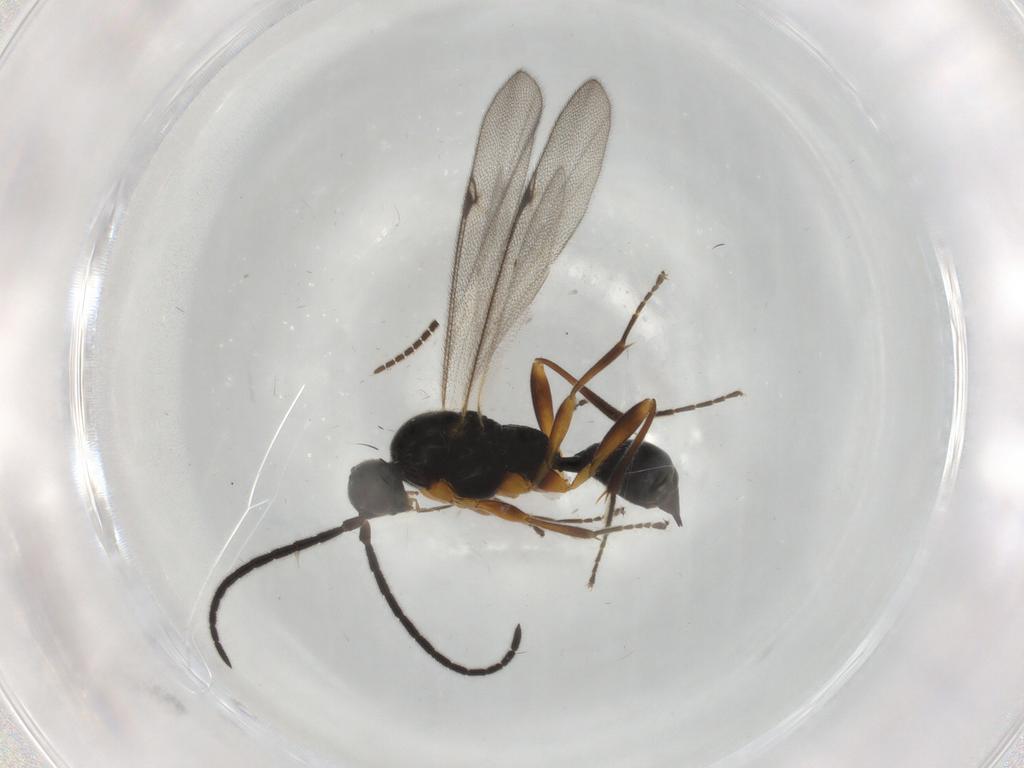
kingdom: Animalia
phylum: Arthropoda
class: Insecta
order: Hymenoptera
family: Proctotrupidae
